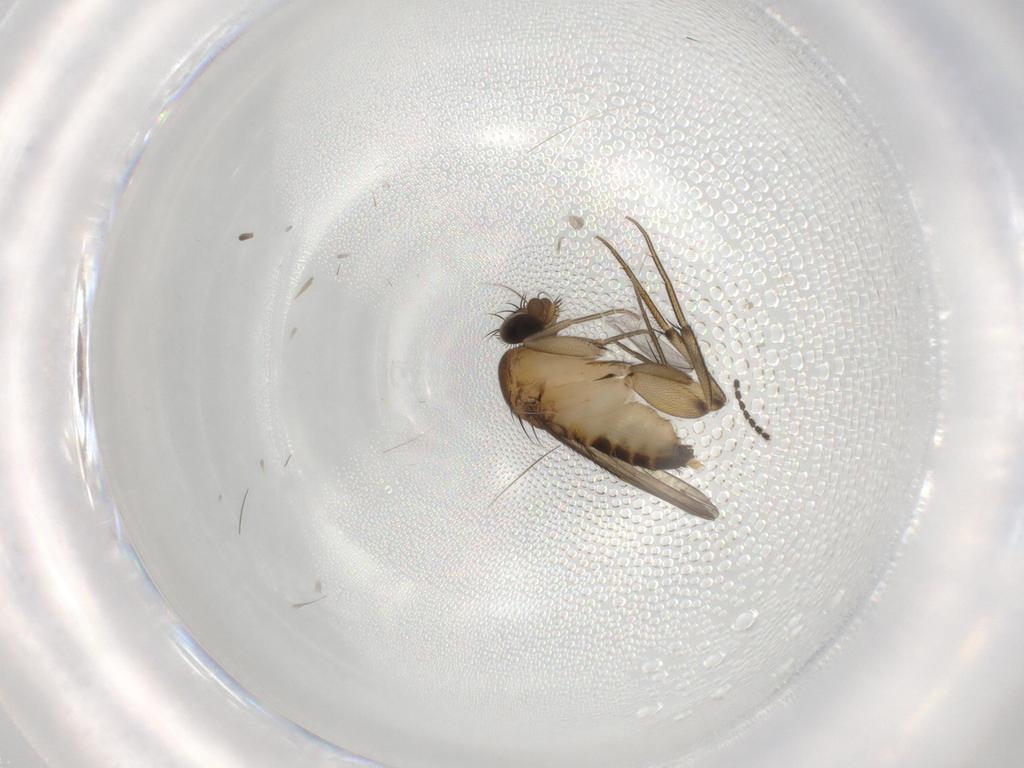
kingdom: Animalia
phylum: Arthropoda
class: Insecta
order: Diptera
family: Phoridae
